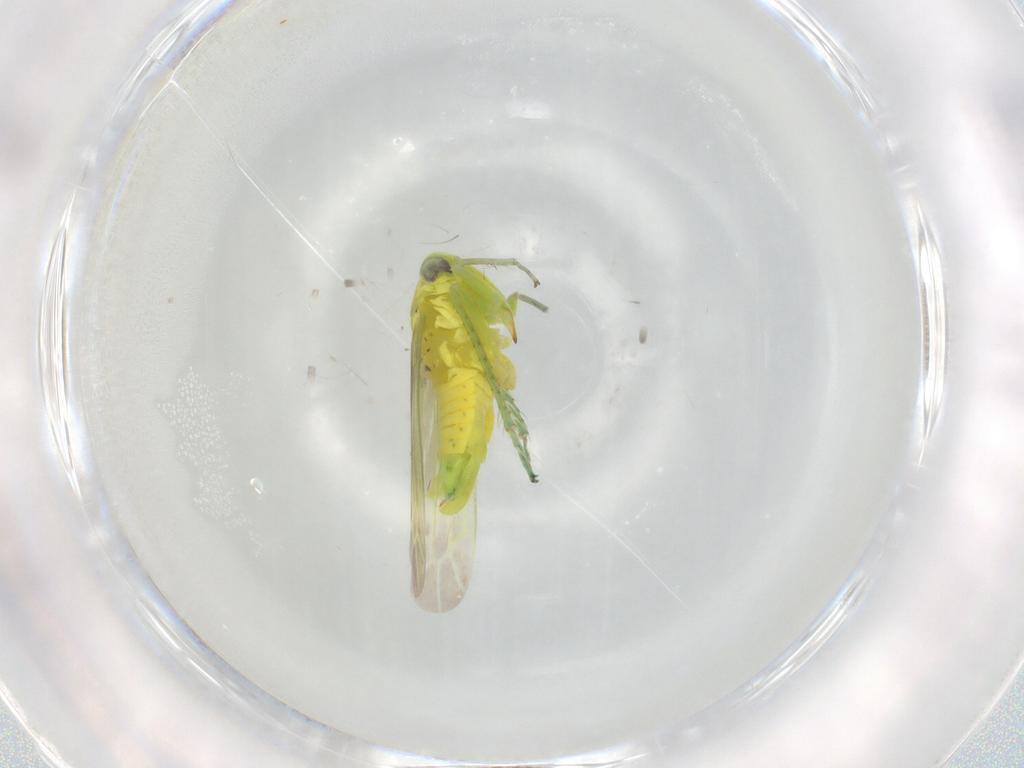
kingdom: Animalia
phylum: Arthropoda
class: Insecta
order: Hemiptera
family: Cicadellidae
